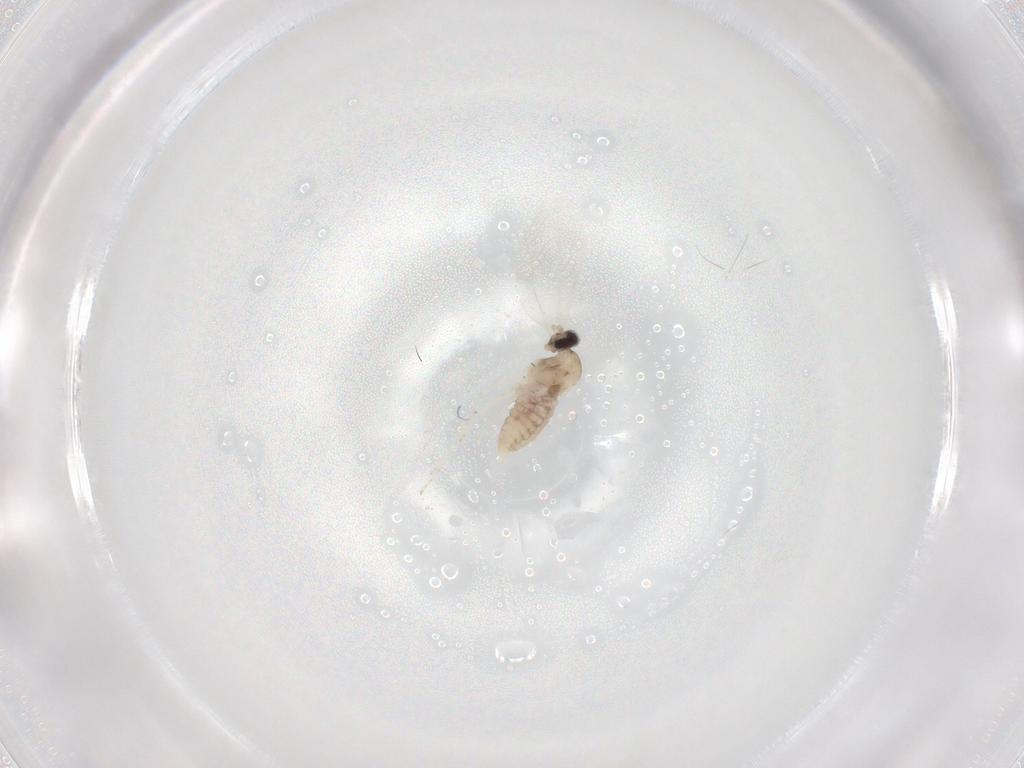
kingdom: Animalia
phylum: Arthropoda
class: Insecta
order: Diptera
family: Cecidomyiidae
